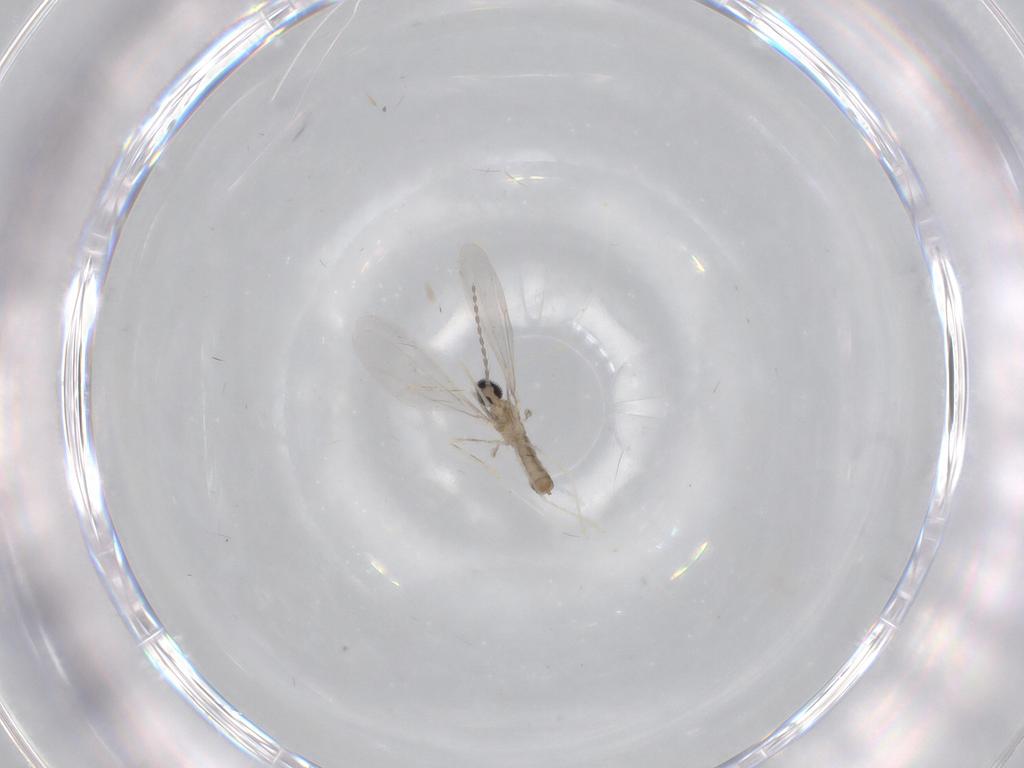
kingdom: Animalia
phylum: Arthropoda
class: Insecta
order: Diptera
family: Cecidomyiidae
